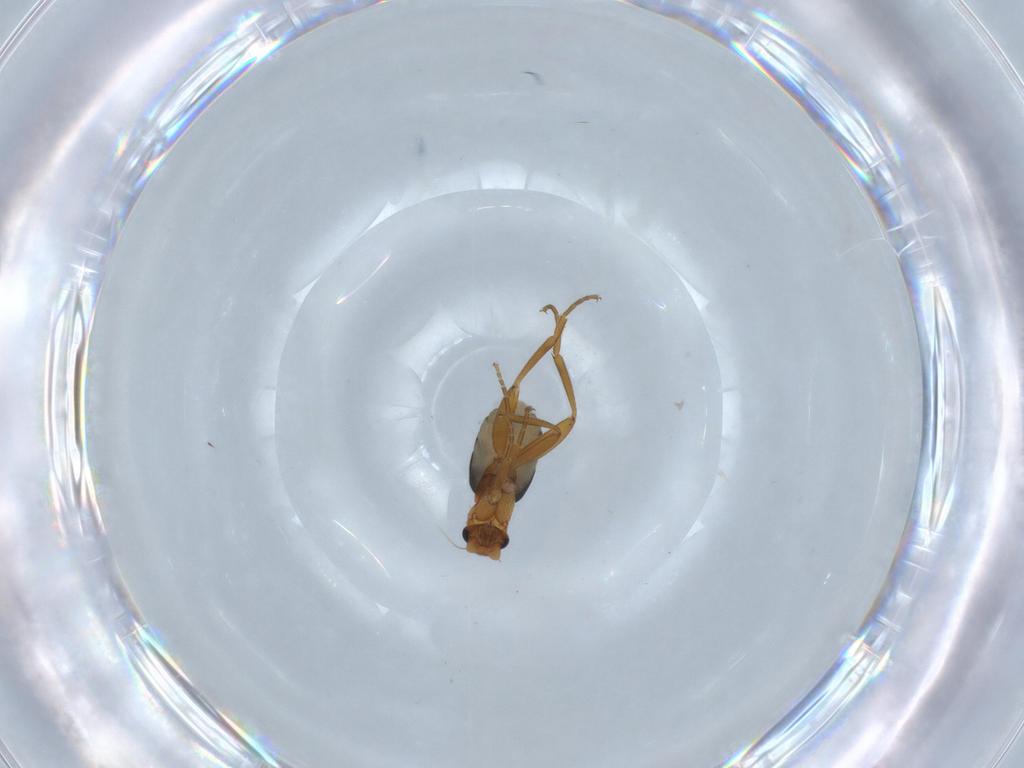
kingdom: Animalia
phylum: Arthropoda
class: Insecta
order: Diptera
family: Phoridae
